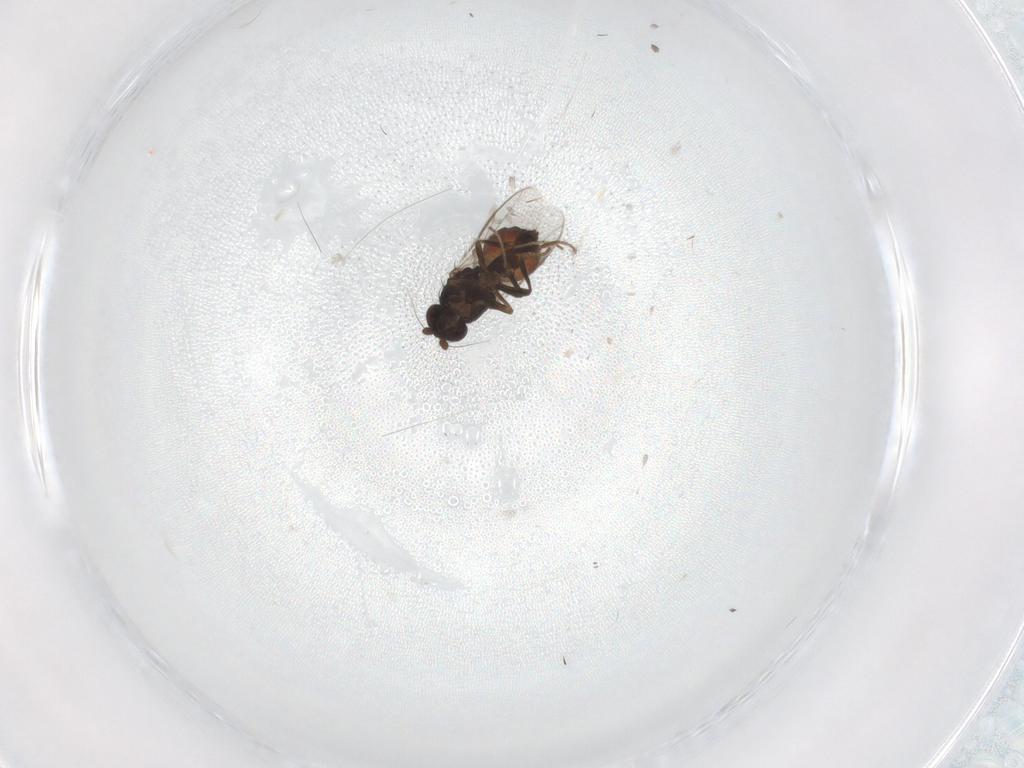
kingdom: Animalia
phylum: Arthropoda
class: Insecta
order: Diptera
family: Sphaeroceridae
